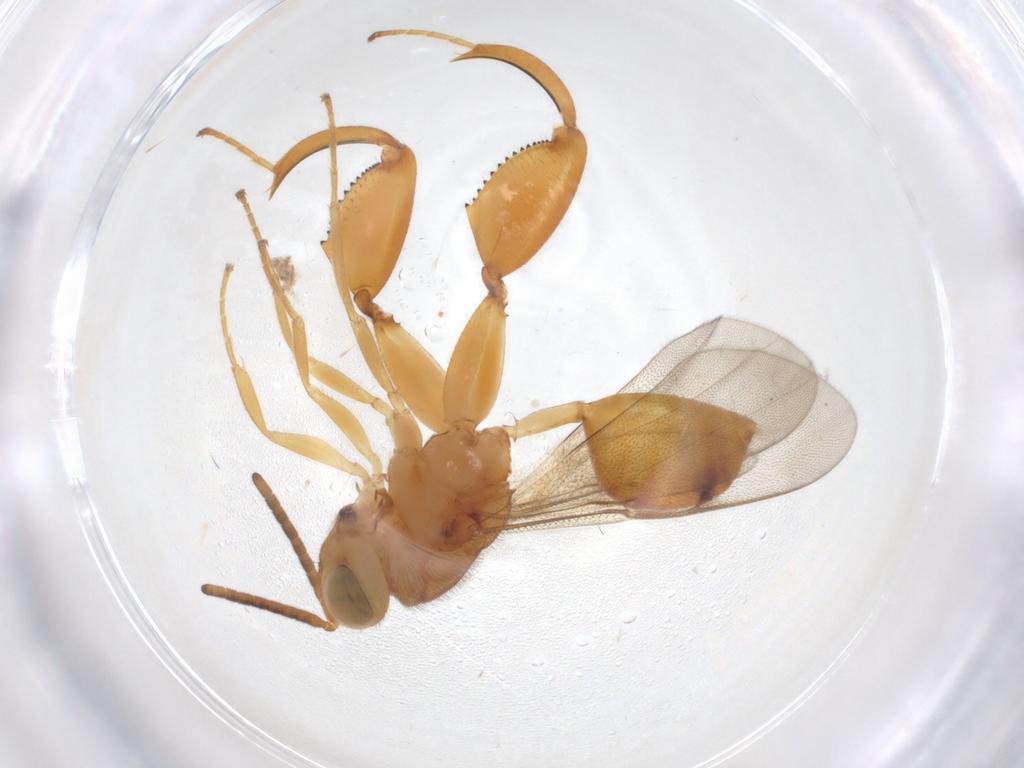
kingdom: Animalia
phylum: Arthropoda
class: Insecta
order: Hymenoptera
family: Chalcididae
